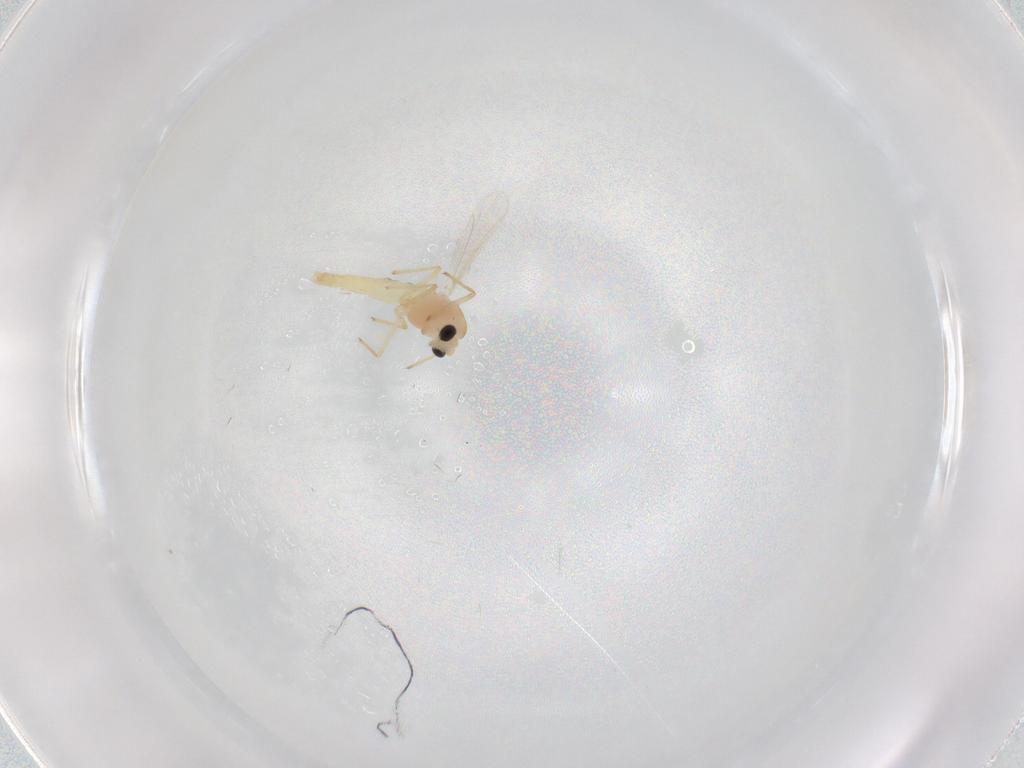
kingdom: Animalia
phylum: Arthropoda
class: Insecta
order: Diptera
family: Chironomidae
